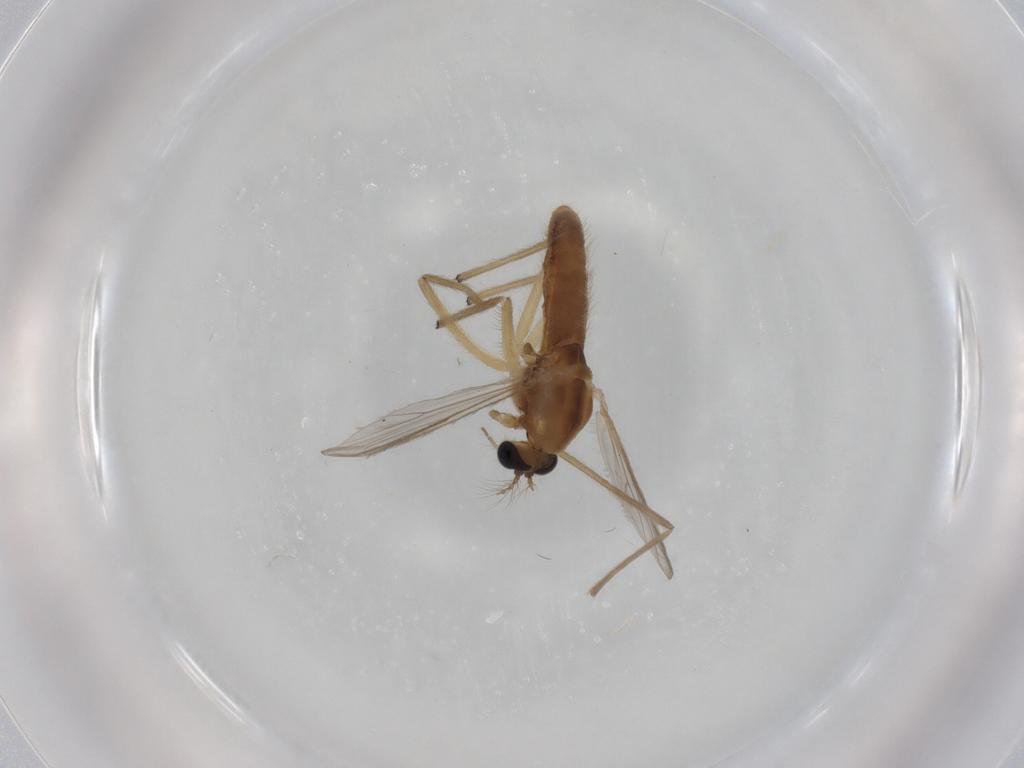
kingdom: Animalia
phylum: Arthropoda
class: Insecta
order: Diptera
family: Chironomidae
